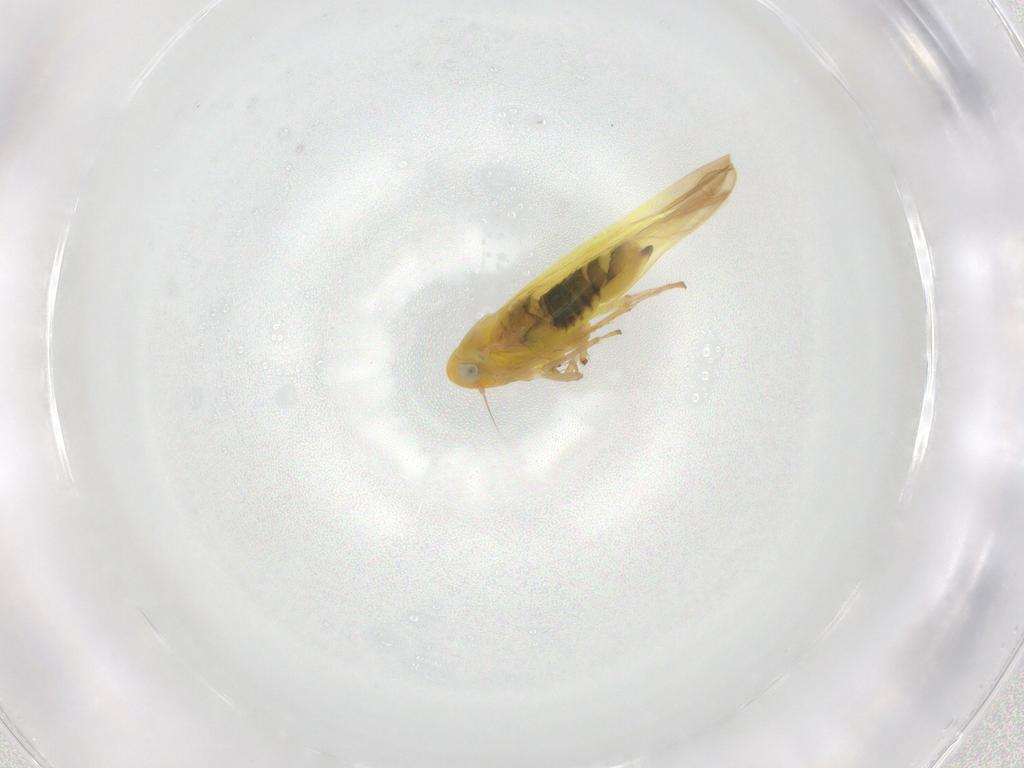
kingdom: Animalia
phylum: Arthropoda
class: Insecta
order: Hemiptera
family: Cicadellidae
